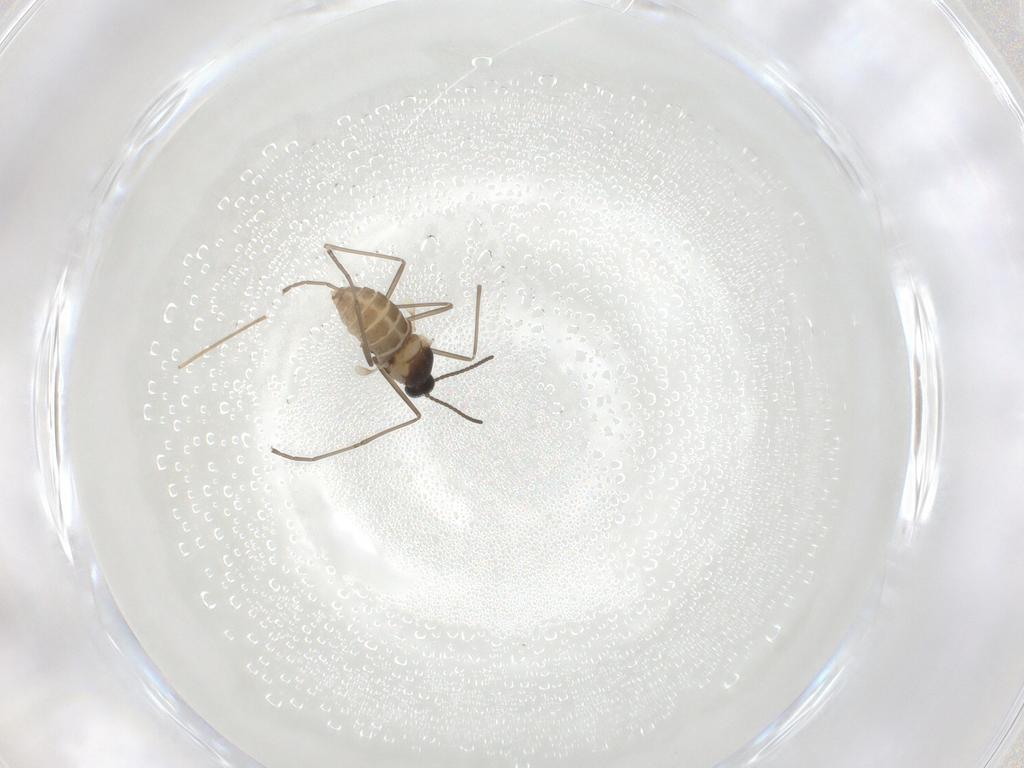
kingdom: Animalia
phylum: Arthropoda
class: Insecta
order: Diptera
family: Cecidomyiidae
